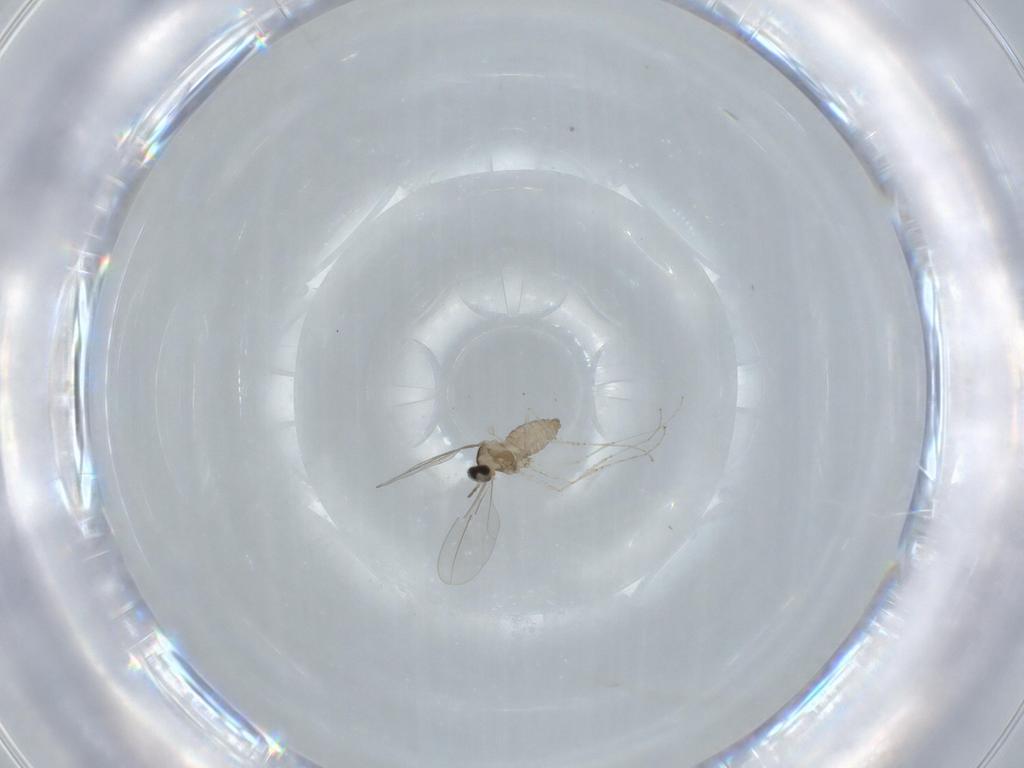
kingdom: Animalia
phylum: Arthropoda
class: Insecta
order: Diptera
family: Cecidomyiidae
